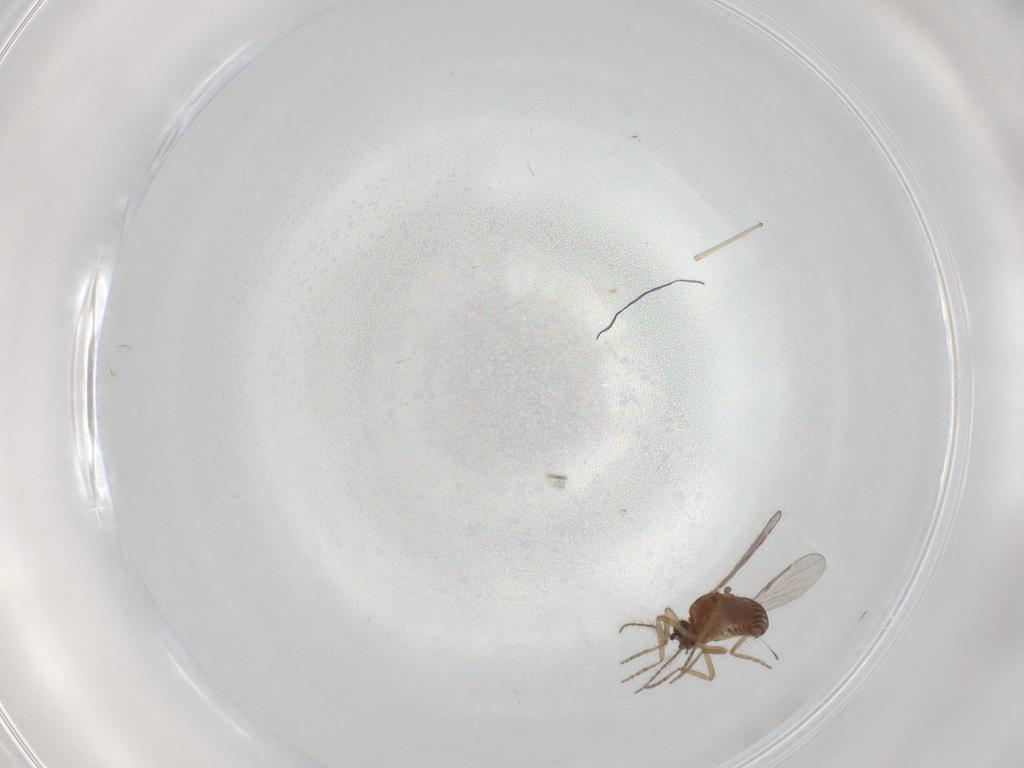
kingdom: Animalia
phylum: Arthropoda
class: Insecta
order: Diptera
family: Ceratopogonidae
